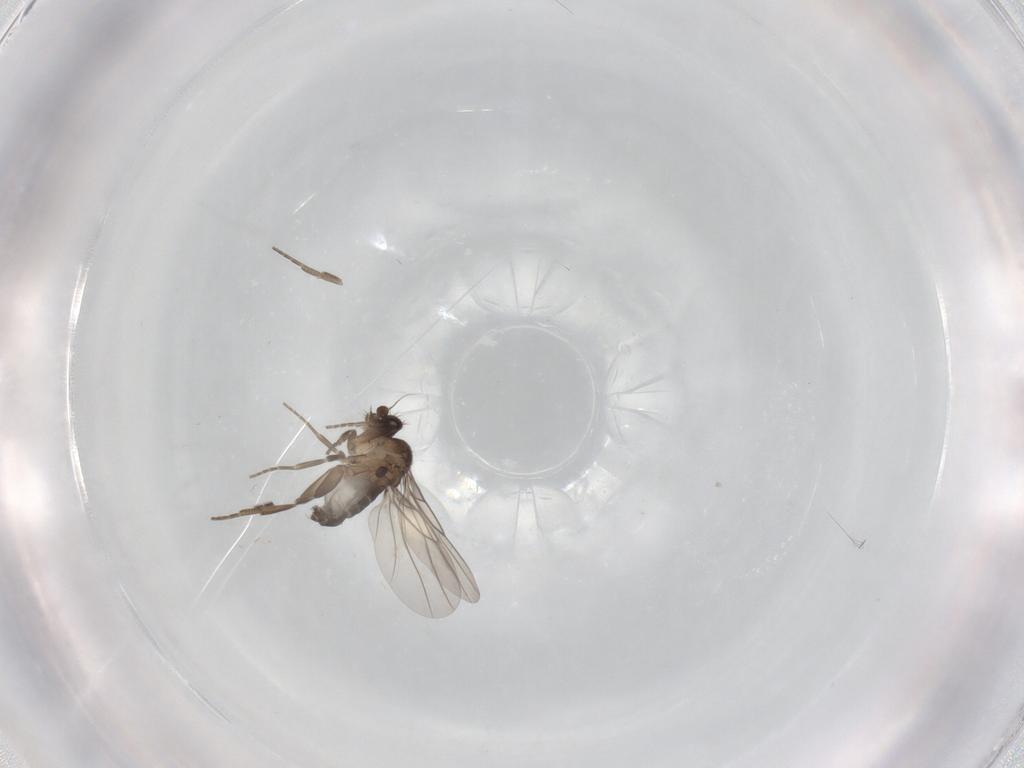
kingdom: Animalia
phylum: Arthropoda
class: Insecta
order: Diptera
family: Phoridae
